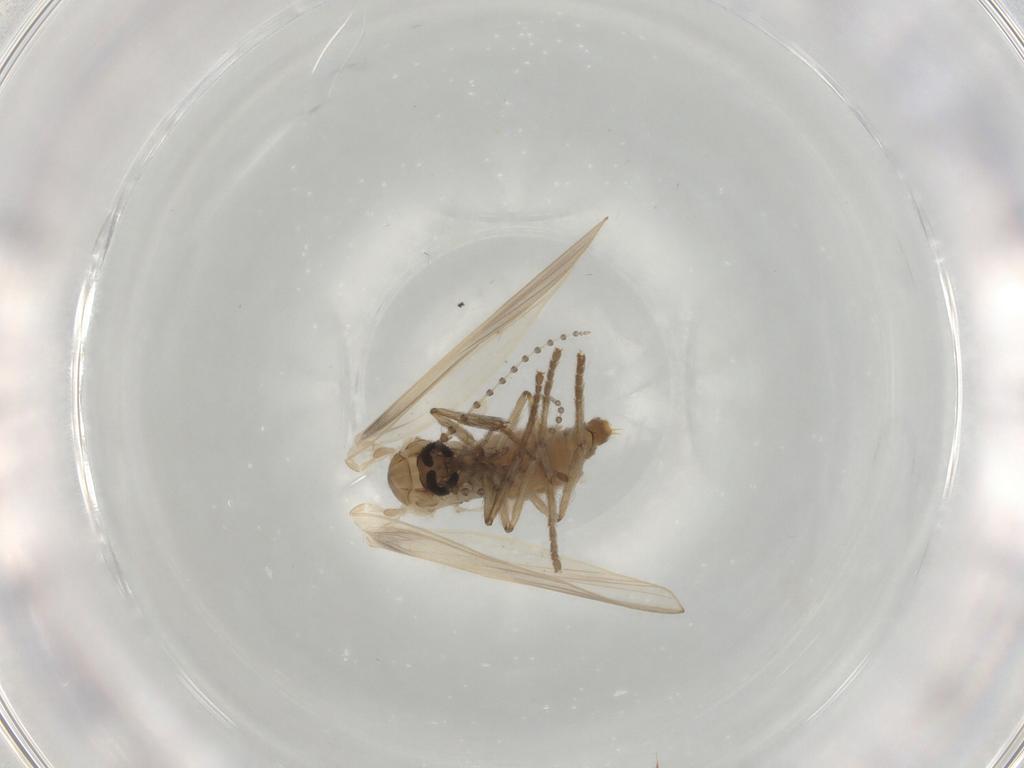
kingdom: Animalia
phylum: Arthropoda
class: Insecta
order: Diptera
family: Psychodidae
